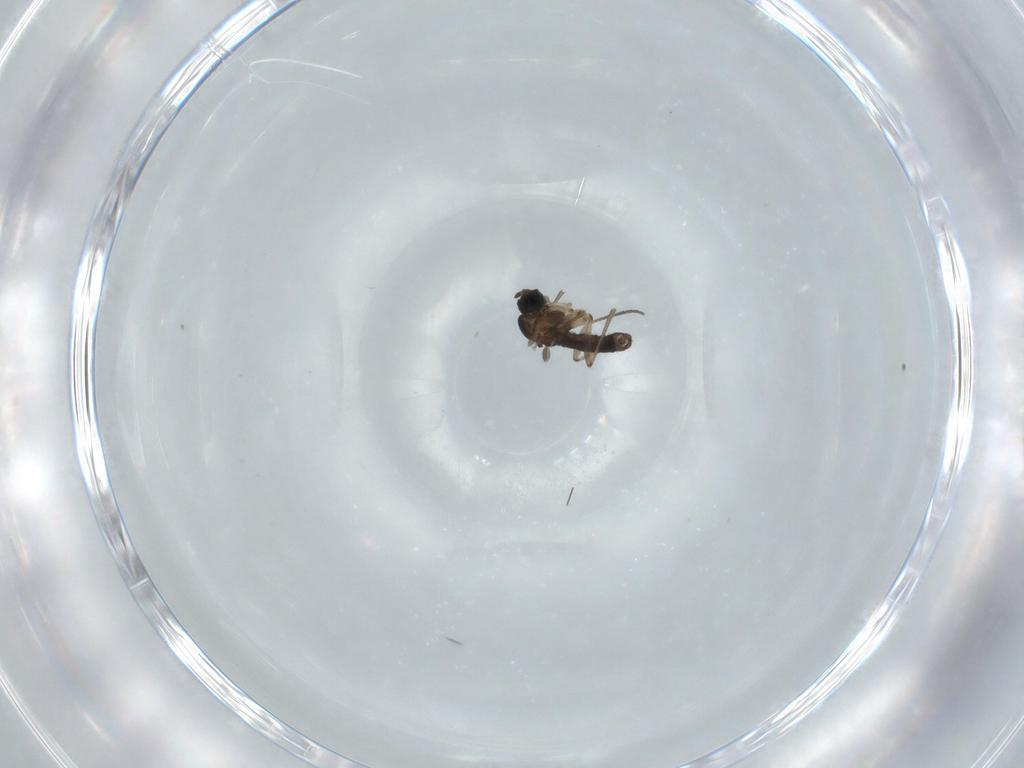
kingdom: Animalia
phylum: Arthropoda
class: Insecta
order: Diptera
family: Sciaridae
